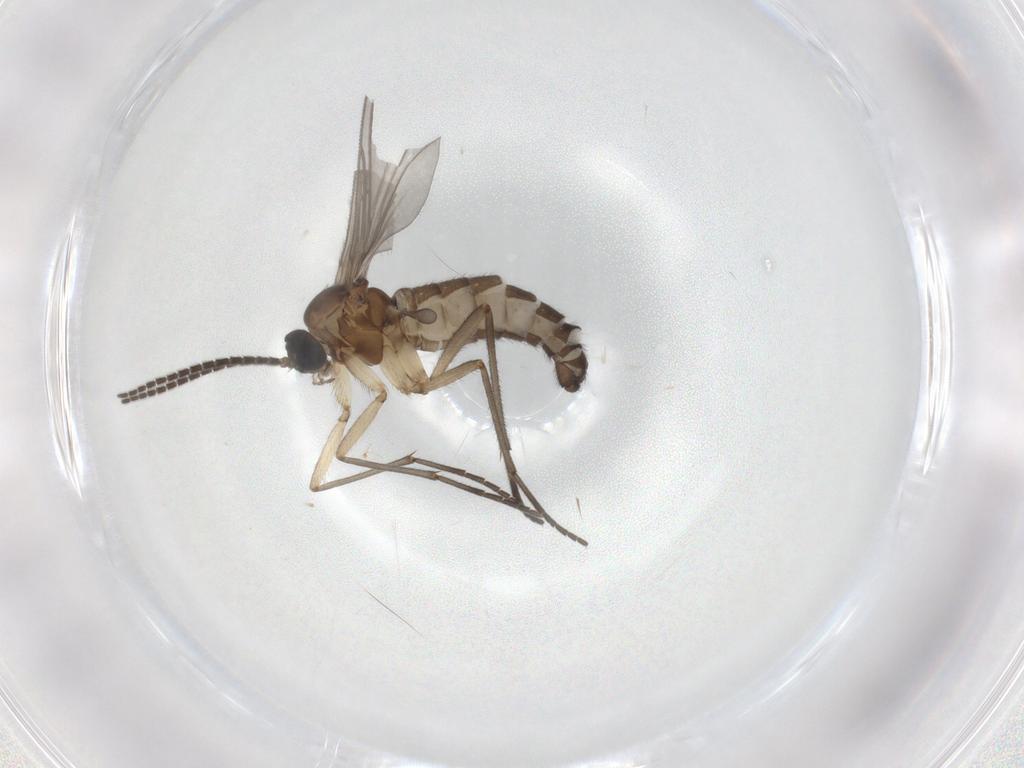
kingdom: Animalia
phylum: Arthropoda
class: Insecta
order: Diptera
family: Sciaridae
